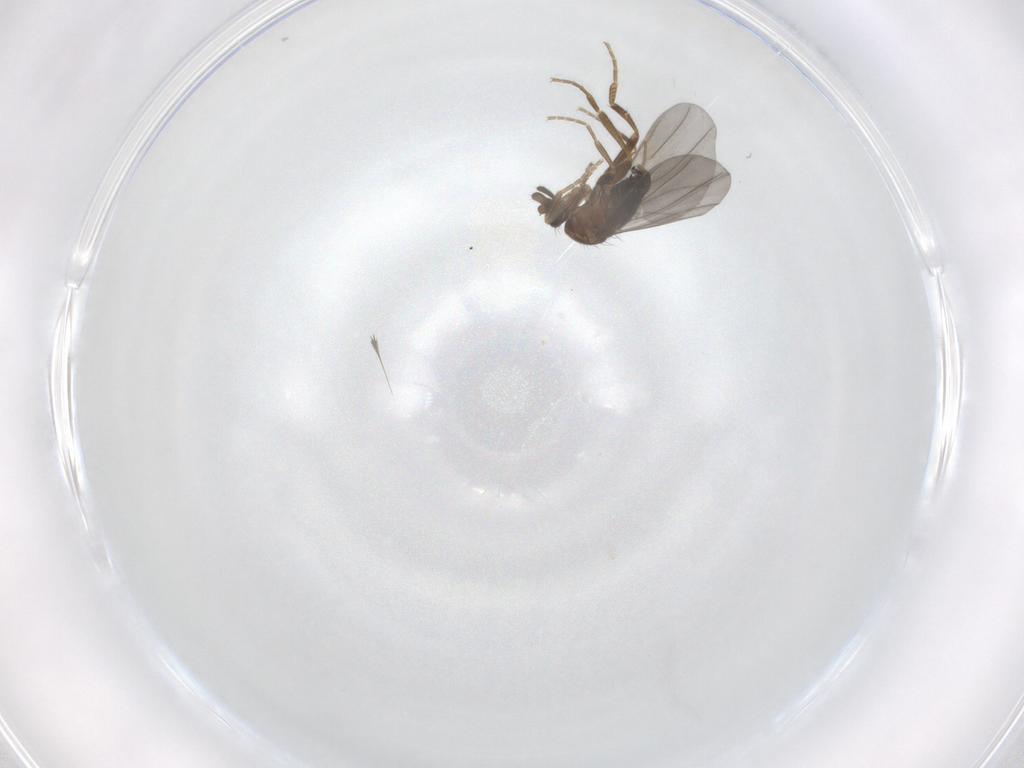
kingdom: Animalia
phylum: Arthropoda
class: Insecta
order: Diptera
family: Phoridae
